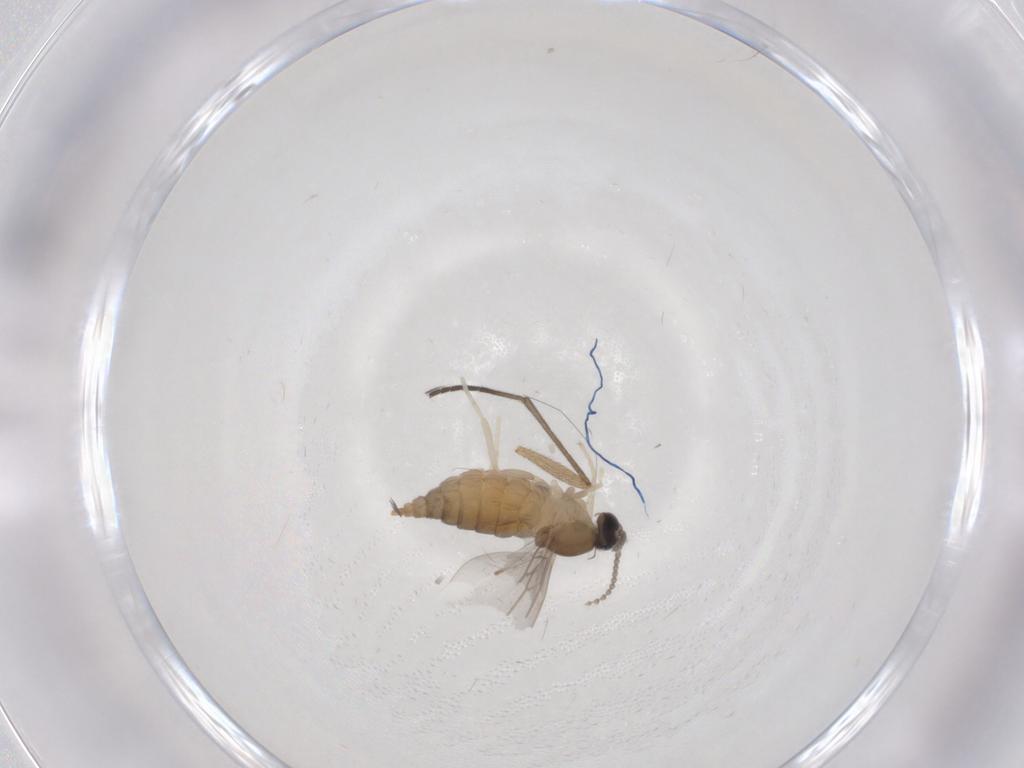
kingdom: Animalia
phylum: Arthropoda
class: Insecta
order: Diptera
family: Cecidomyiidae
